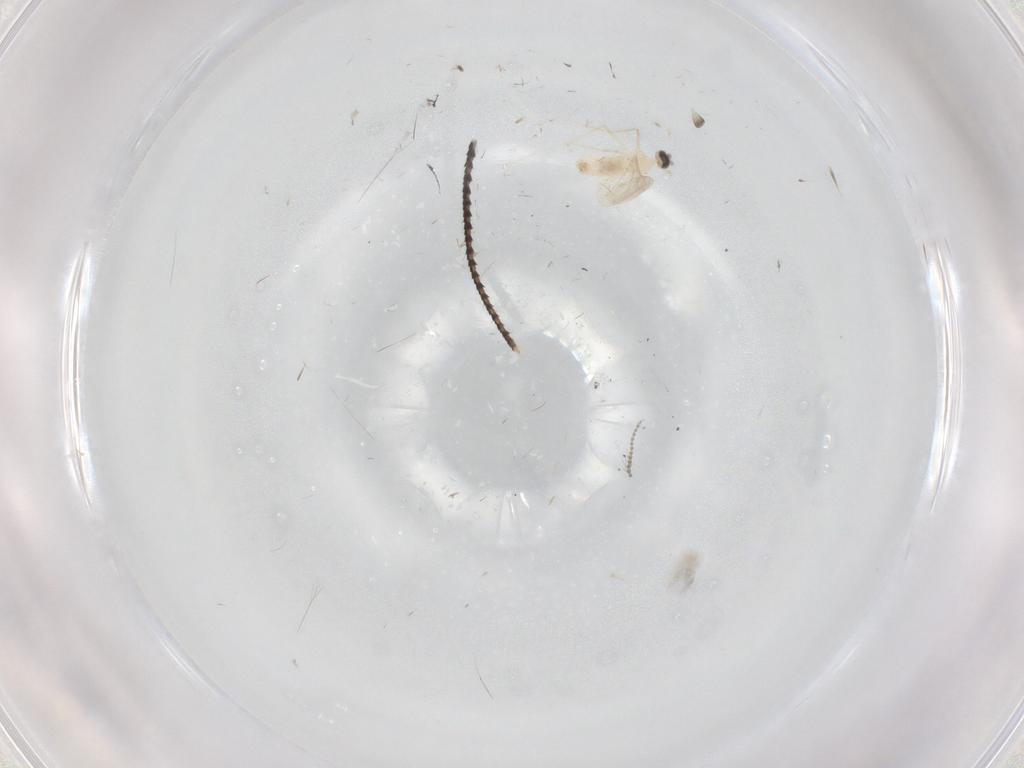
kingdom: Animalia
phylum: Arthropoda
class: Insecta
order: Diptera
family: Psychodidae
